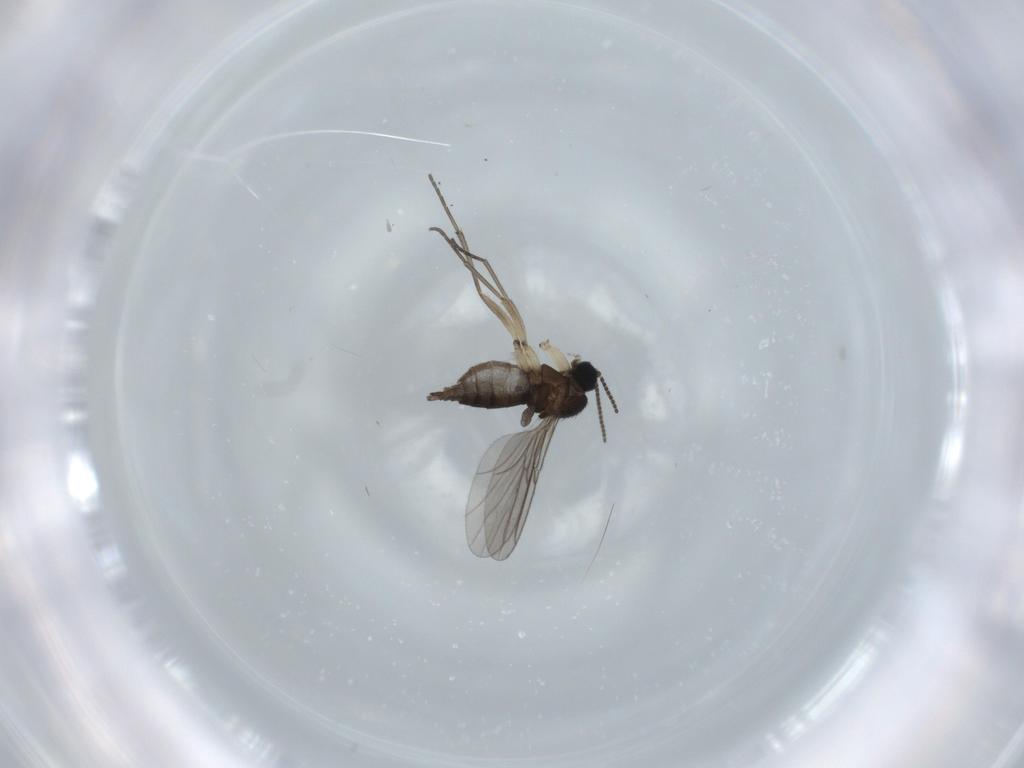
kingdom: Animalia
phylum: Arthropoda
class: Insecta
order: Diptera
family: Sciaridae
